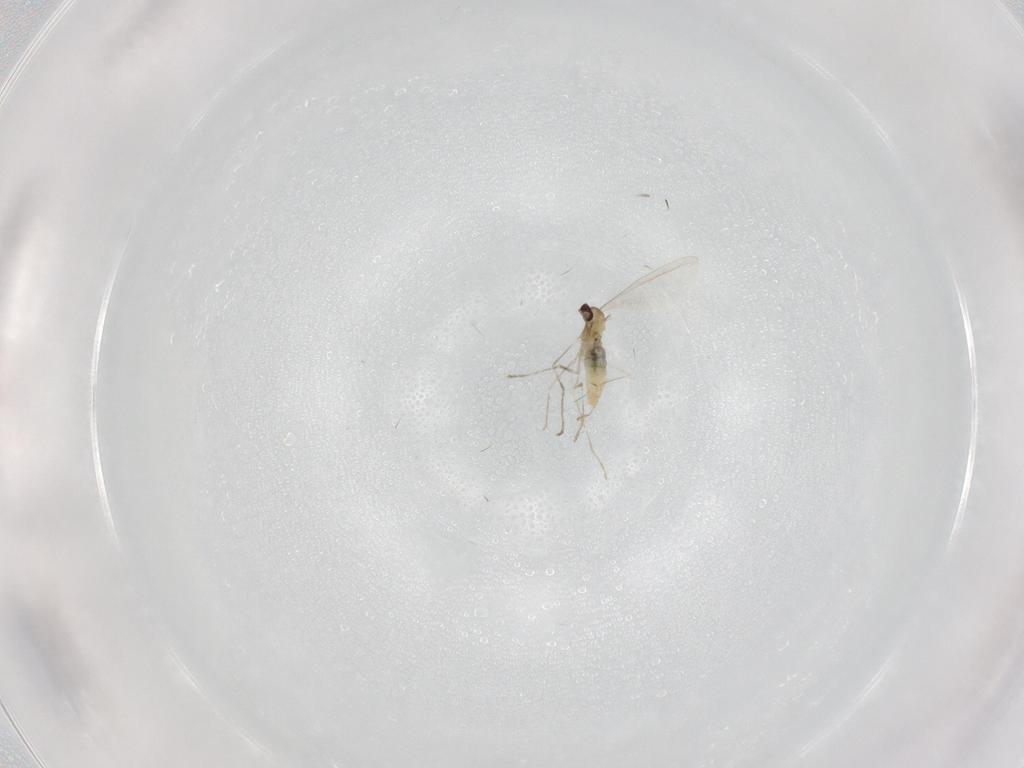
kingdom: Animalia
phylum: Arthropoda
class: Insecta
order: Diptera
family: Cecidomyiidae
